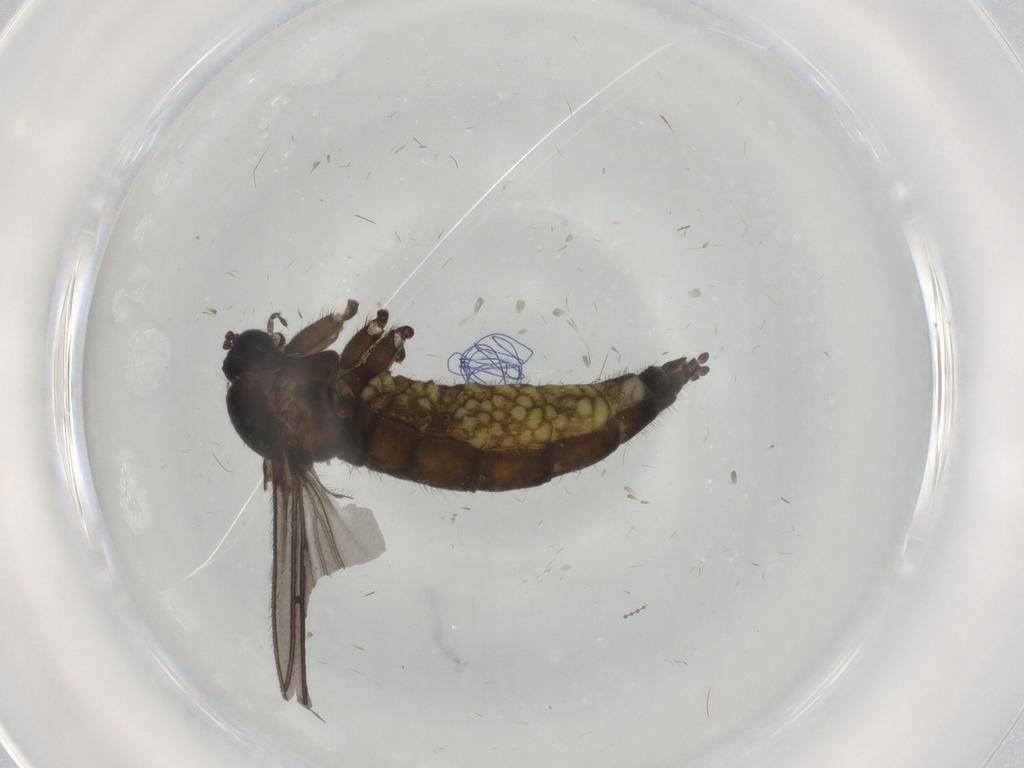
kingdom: Animalia
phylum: Arthropoda
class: Insecta
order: Diptera
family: Sciaridae
